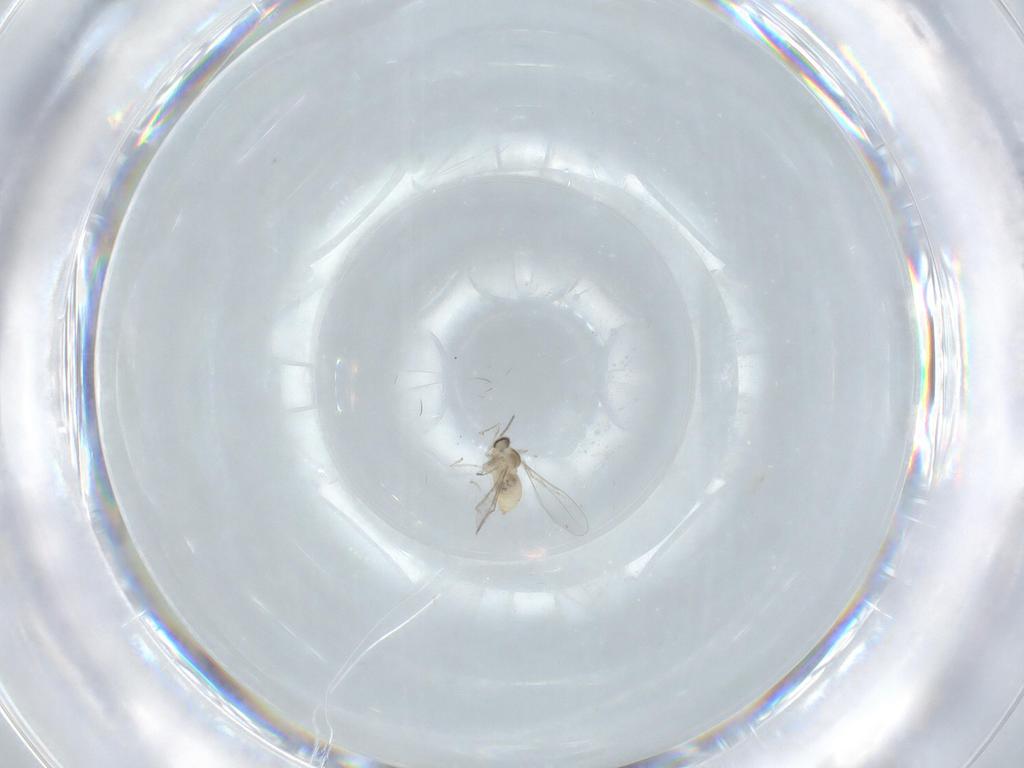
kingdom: Animalia
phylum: Arthropoda
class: Insecta
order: Diptera
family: Cecidomyiidae
